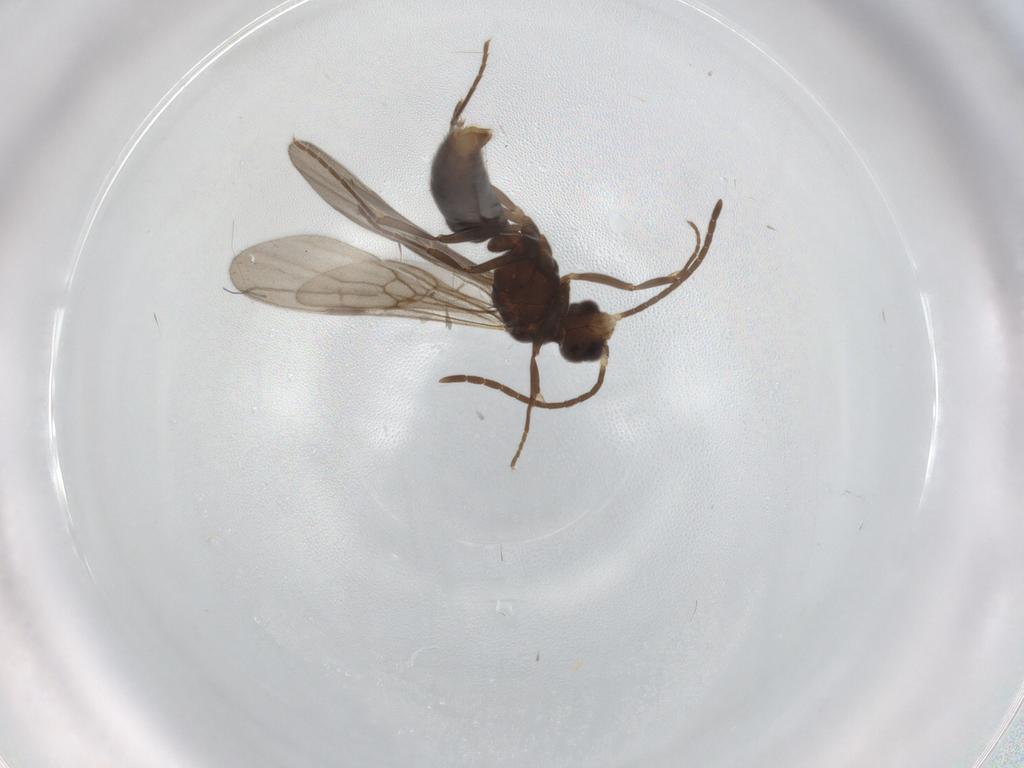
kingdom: Animalia
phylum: Arthropoda
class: Insecta
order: Hymenoptera
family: Formicidae
